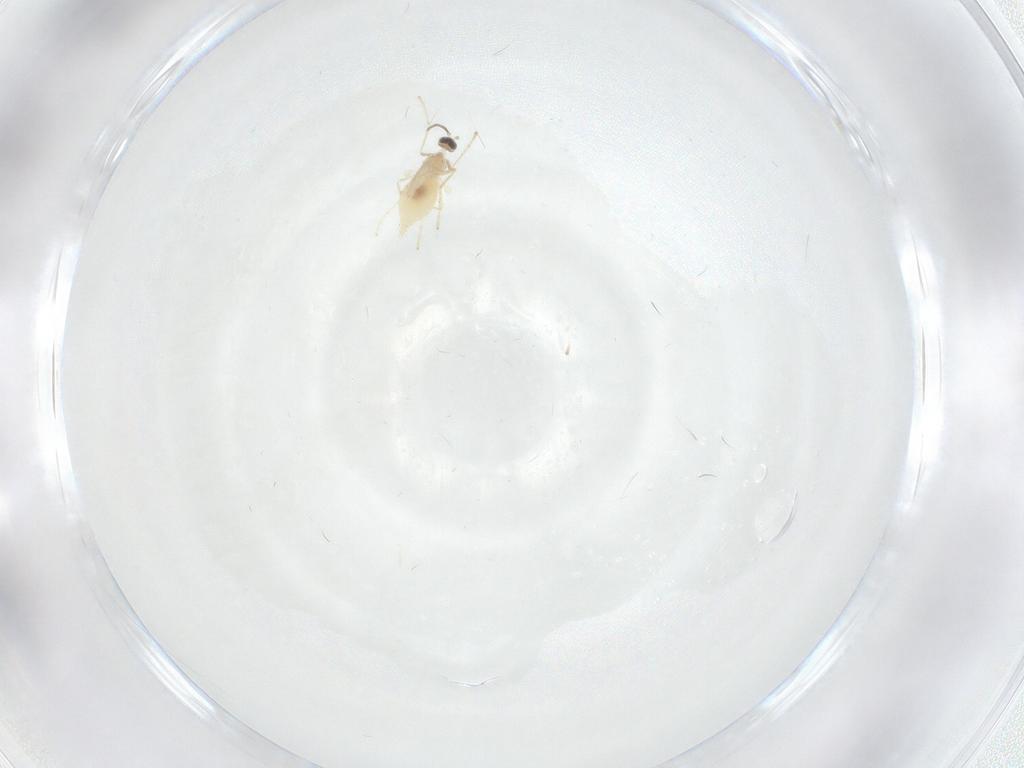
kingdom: Animalia
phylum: Arthropoda
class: Insecta
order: Diptera
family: Cecidomyiidae
